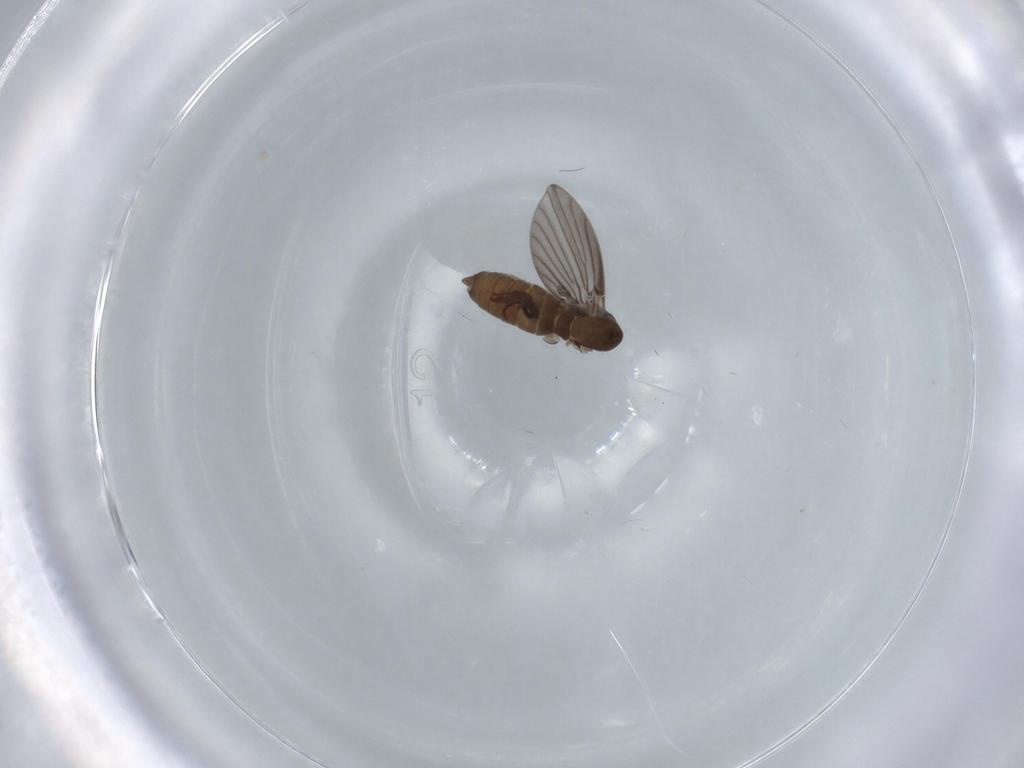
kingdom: Animalia
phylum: Arthropoda
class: Insecta
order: Diptera
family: Psychodidae
